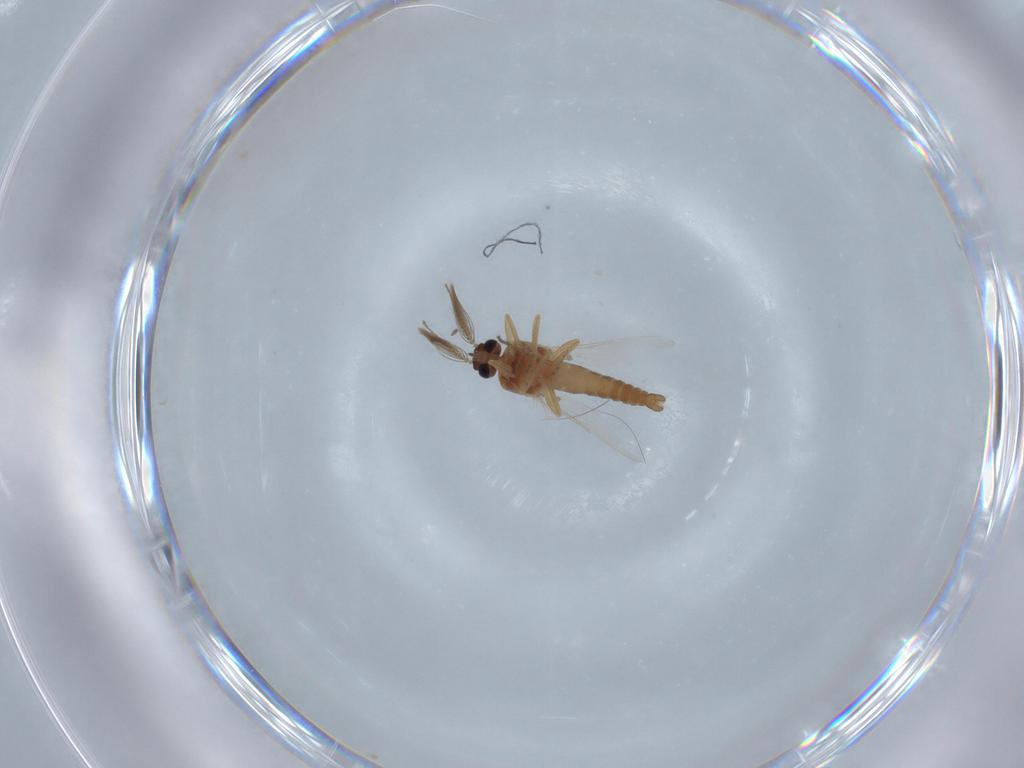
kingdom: Animalia
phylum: Arthropoda
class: Insecta
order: Diptera
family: Ceratopogonidae
